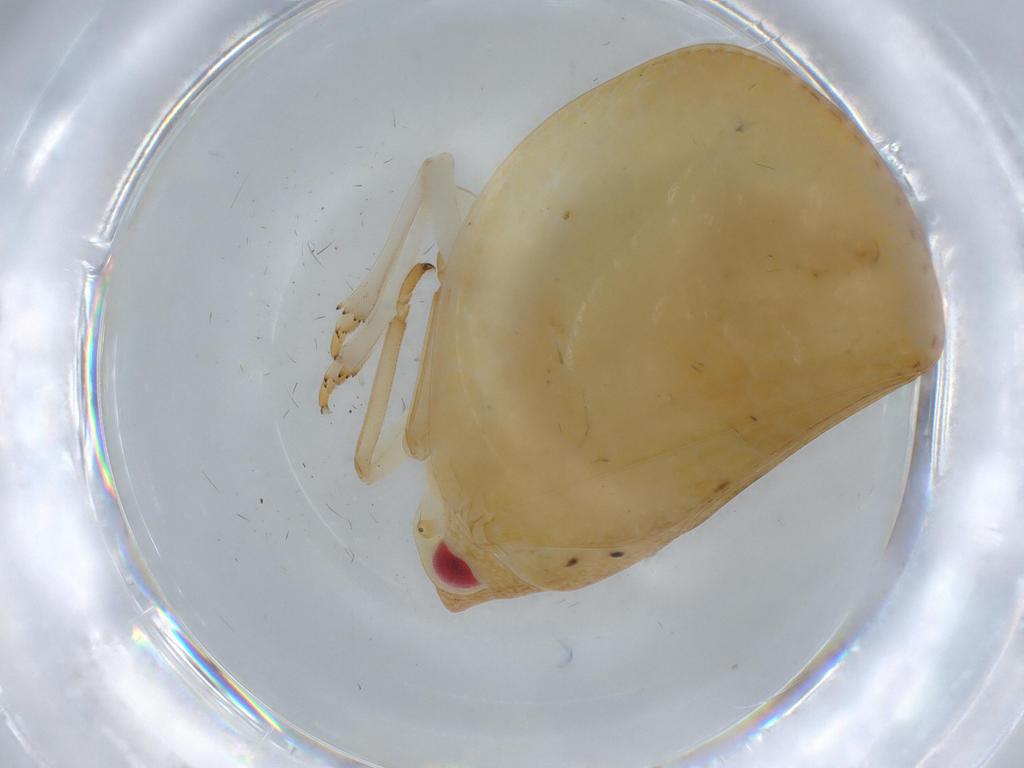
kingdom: Animalia
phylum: Arthropoda
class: Insecta
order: Hemiptera
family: Acanaloniidae
